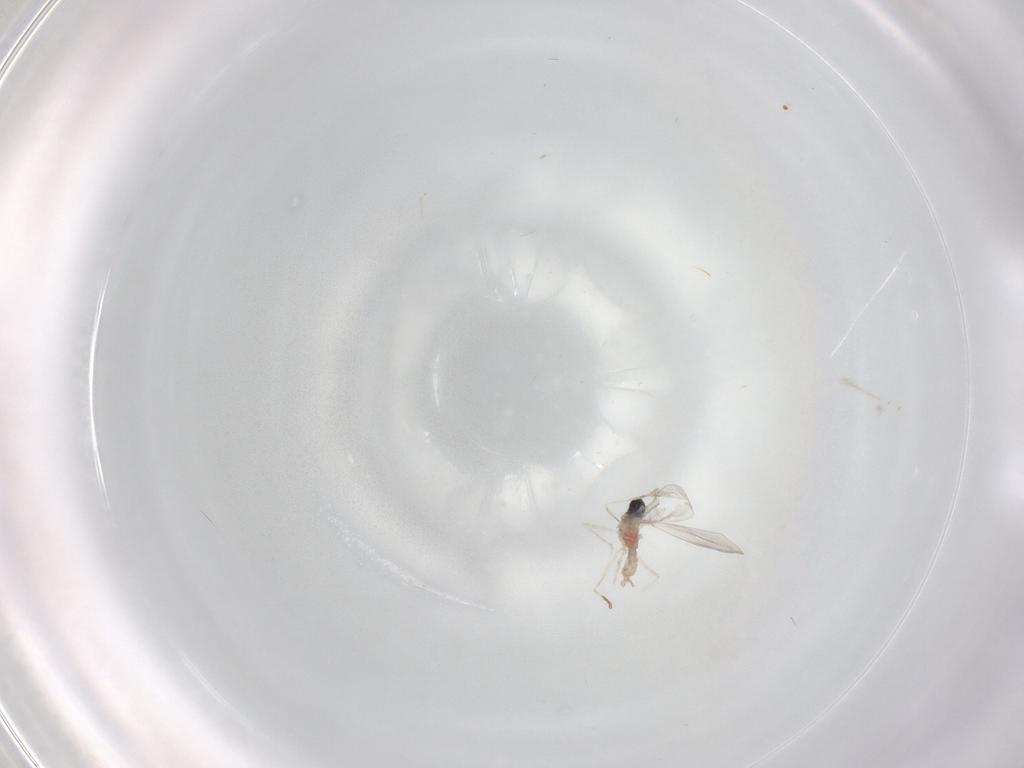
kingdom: Animalia
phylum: Arthropoda
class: Insecta
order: Diptera
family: Cecidomyiidae
